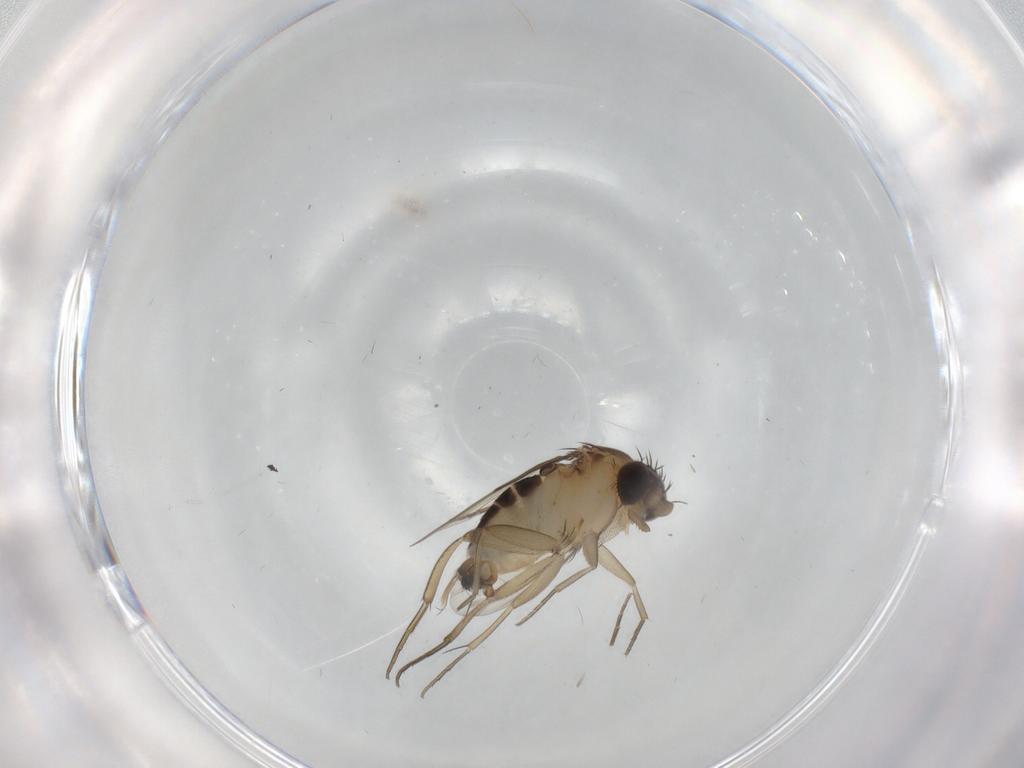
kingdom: Animalia
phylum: Arthropoda
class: Insecta
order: Diptera
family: Phoridae
